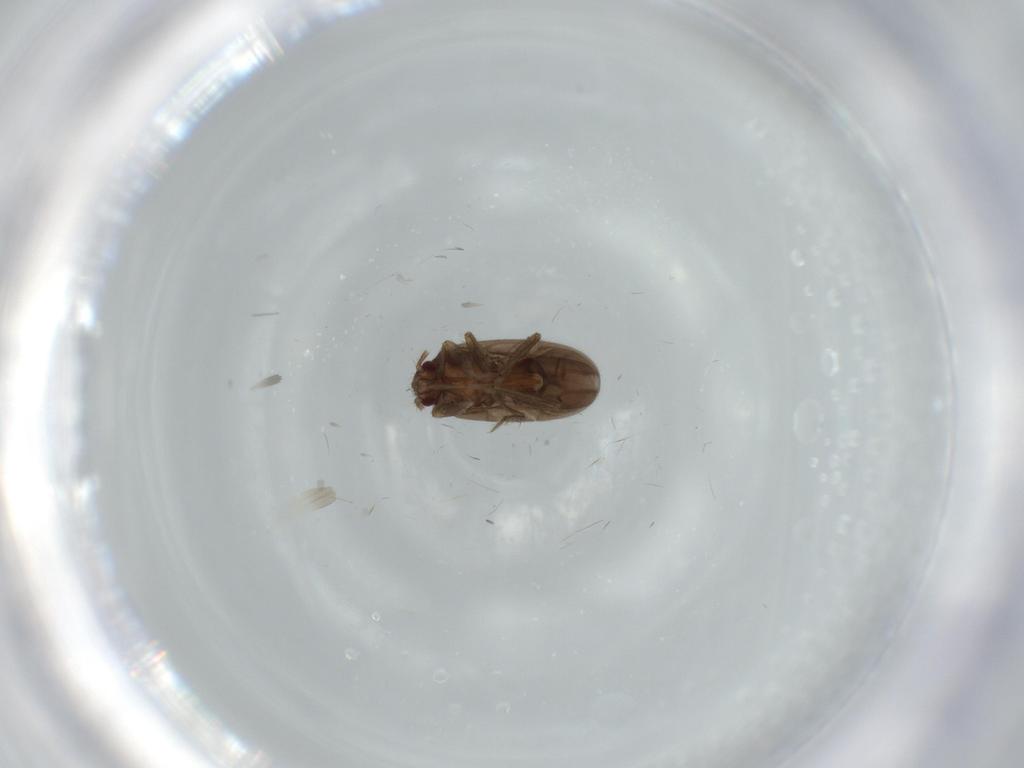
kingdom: Animalia
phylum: Arthropoda
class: Insecta
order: Hemiptera
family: Ceratocombidae
